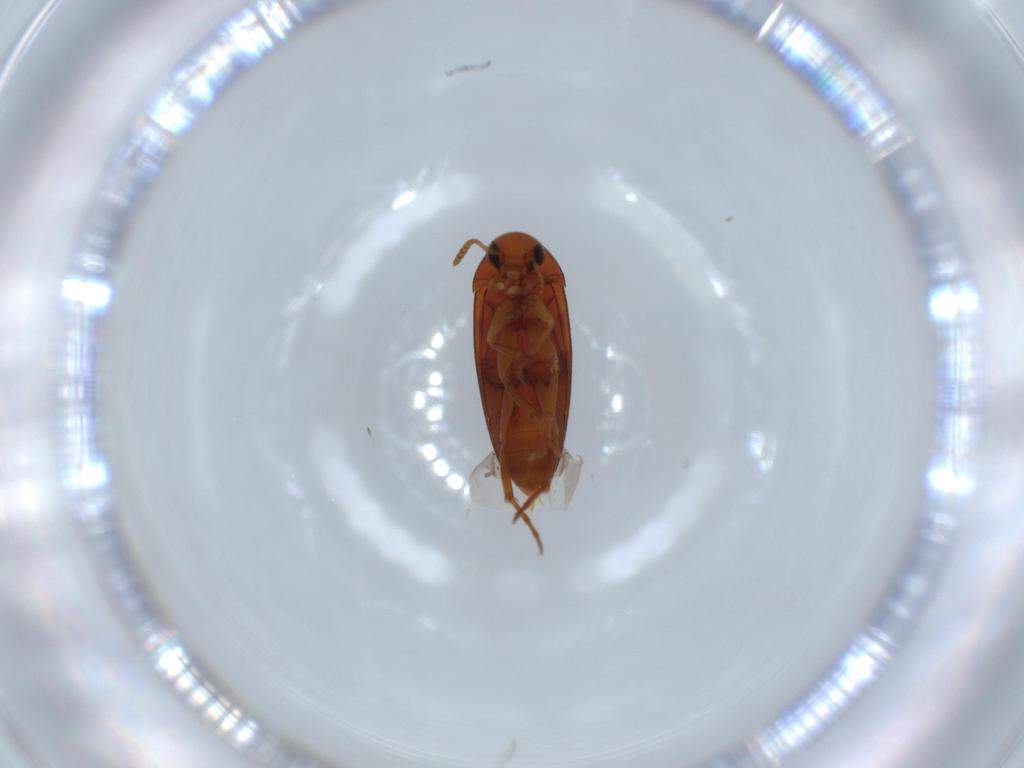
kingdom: Animalia
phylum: Arthropoda
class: Insecta
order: Coleoptera
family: Scraptiidae
